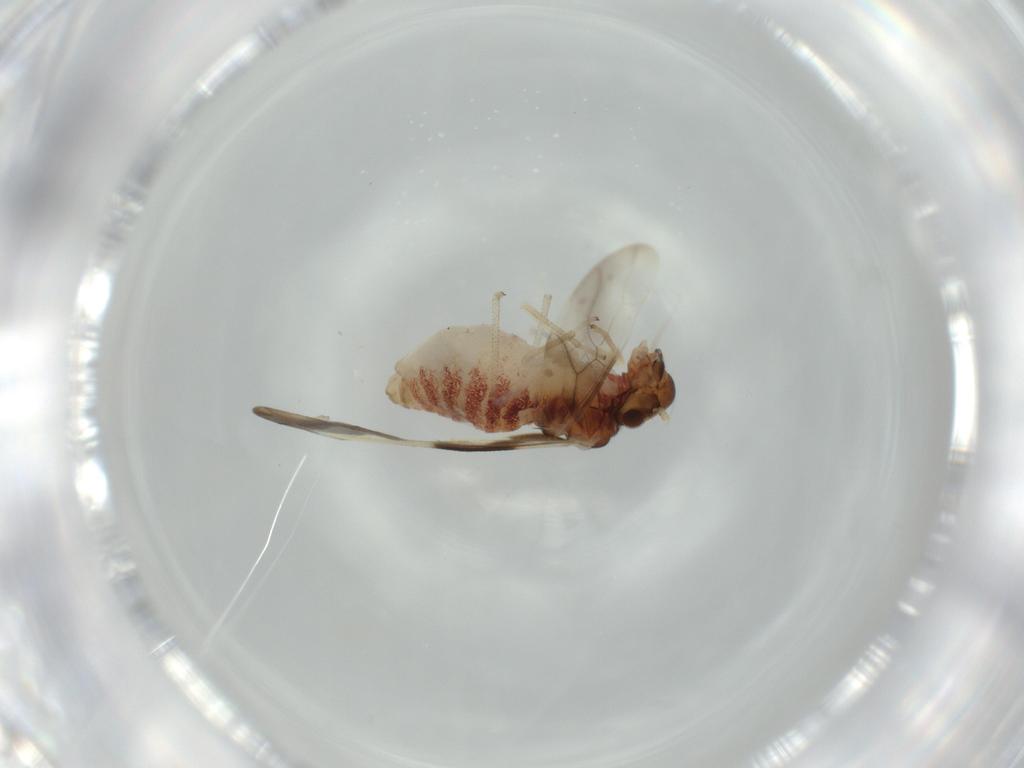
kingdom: Animalia
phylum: Arthropoda
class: Insecta
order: Psocodea
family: Caeciliusidae
